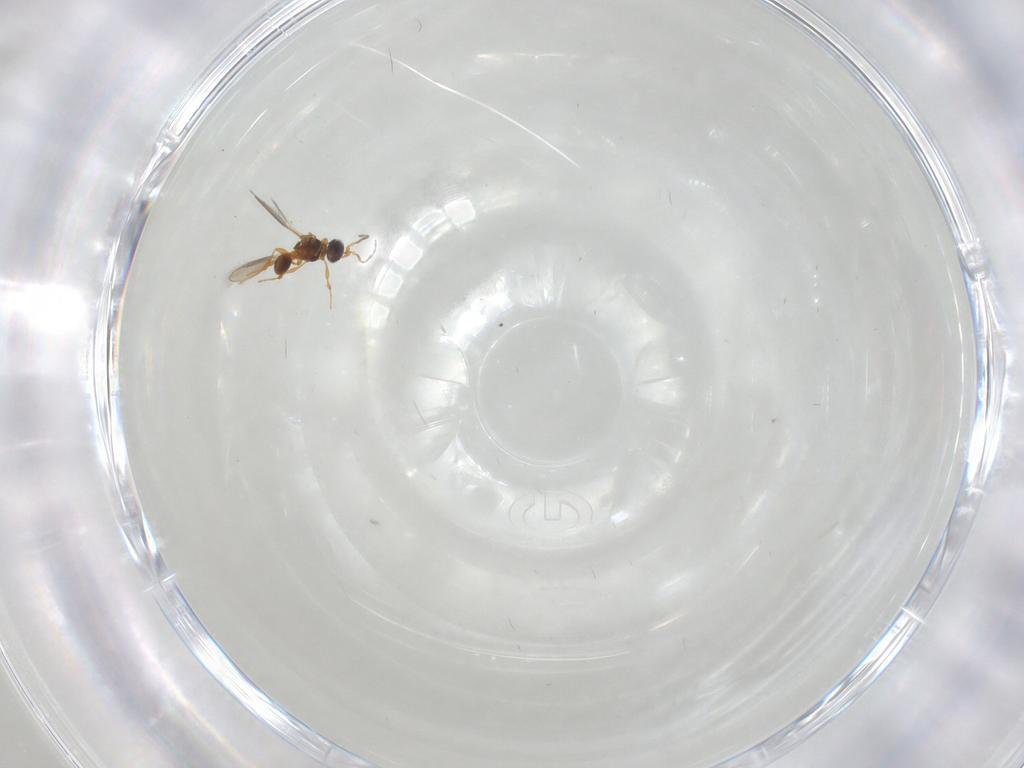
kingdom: Animalia
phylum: Arthropoda
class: Insecta
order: Hymenoptera
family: Platygastridae
